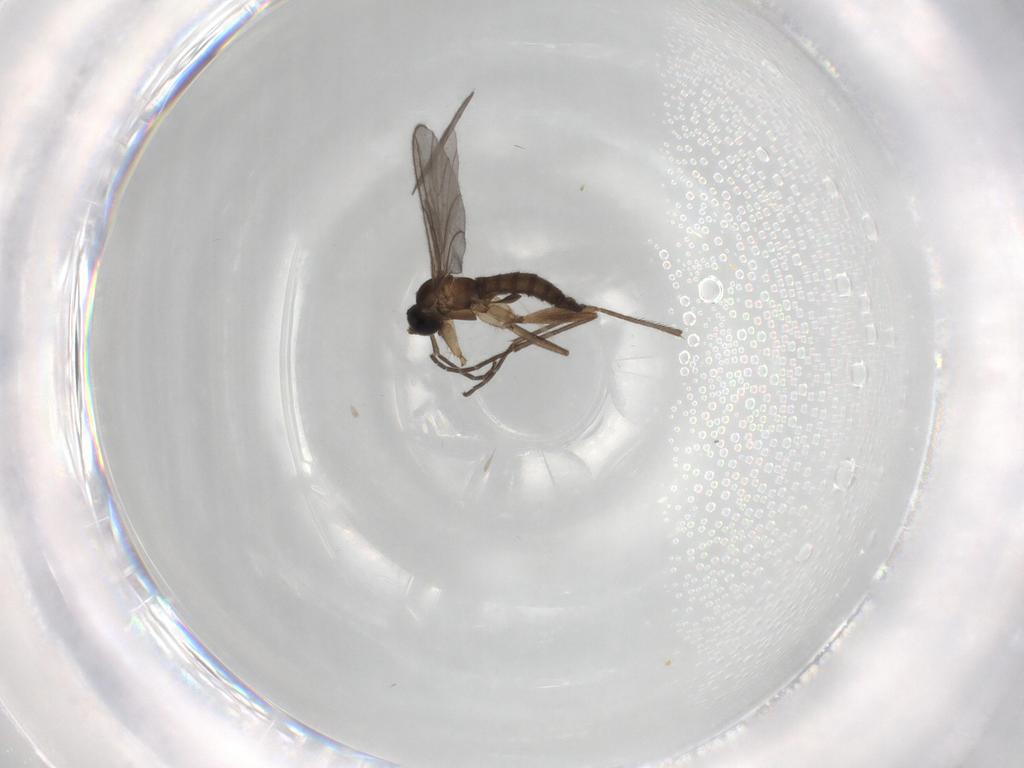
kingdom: Animalia
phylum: Arthropoda
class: Insecta
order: Diptera
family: Sciaridae
